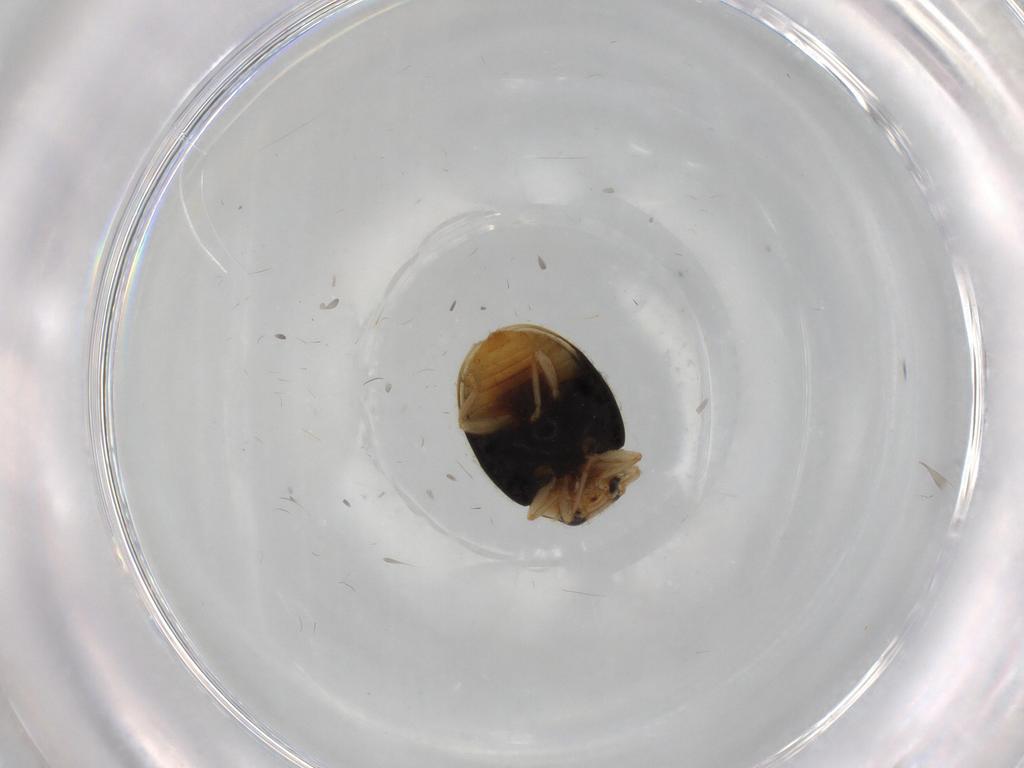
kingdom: Animalia
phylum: Arthropoda
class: Insecta
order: Coleoptera
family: Coccinellidae
